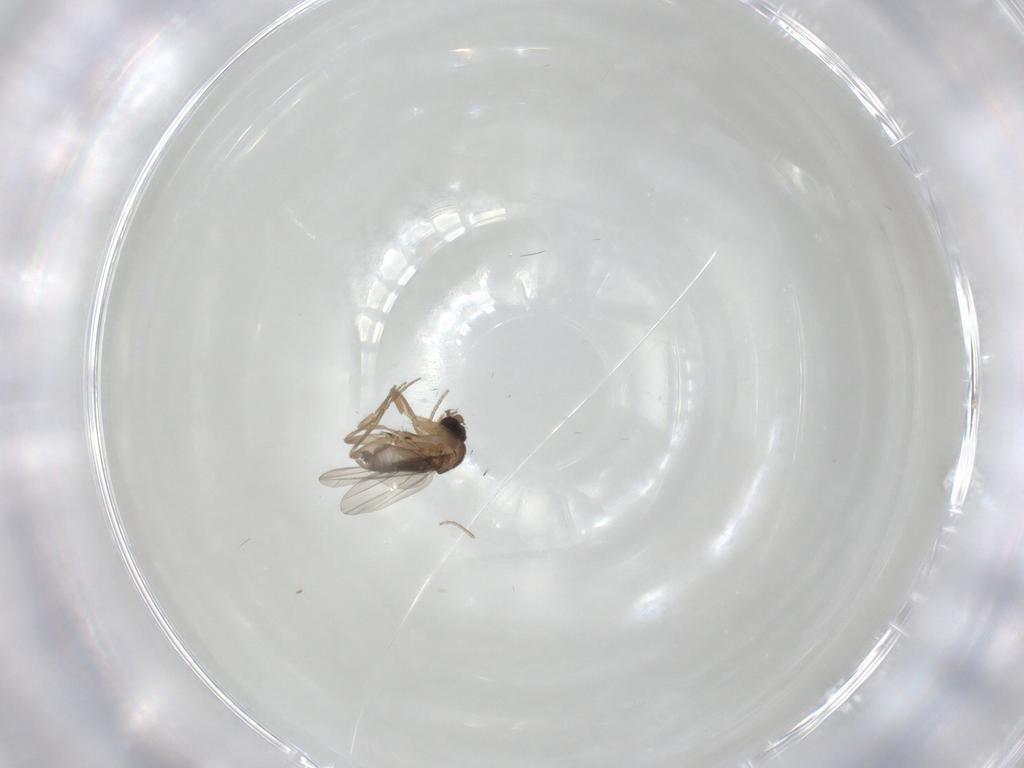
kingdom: Animalia
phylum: Arthropoda
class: Insecta
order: Diptera
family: Phoridae
